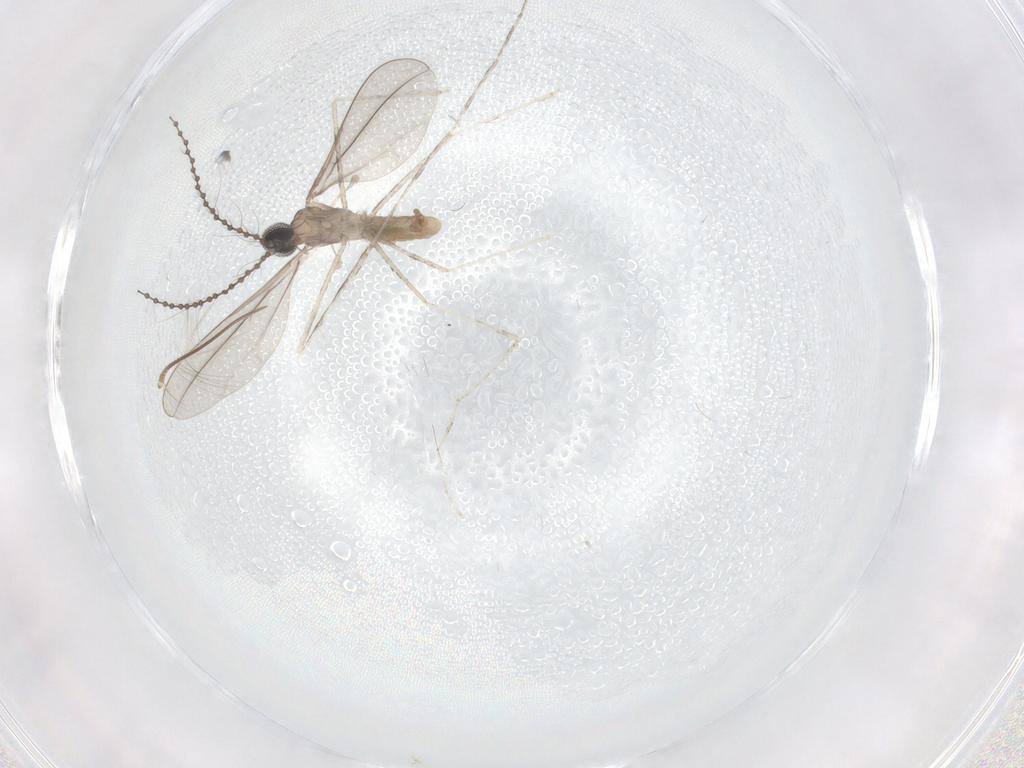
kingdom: Animalia
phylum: Arthropoda
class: Insecta
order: Diptera
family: Cecidomyiidae
